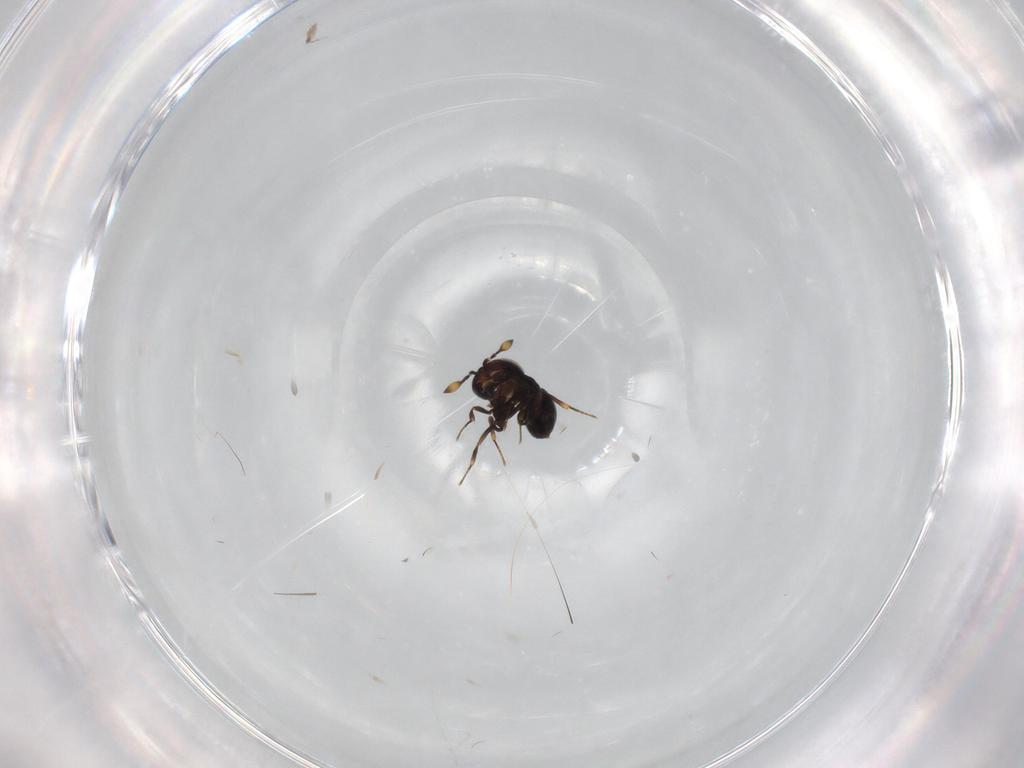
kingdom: Animalia
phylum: Arthropoda
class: Insecta
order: Hymenoptera
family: Scelionidae
